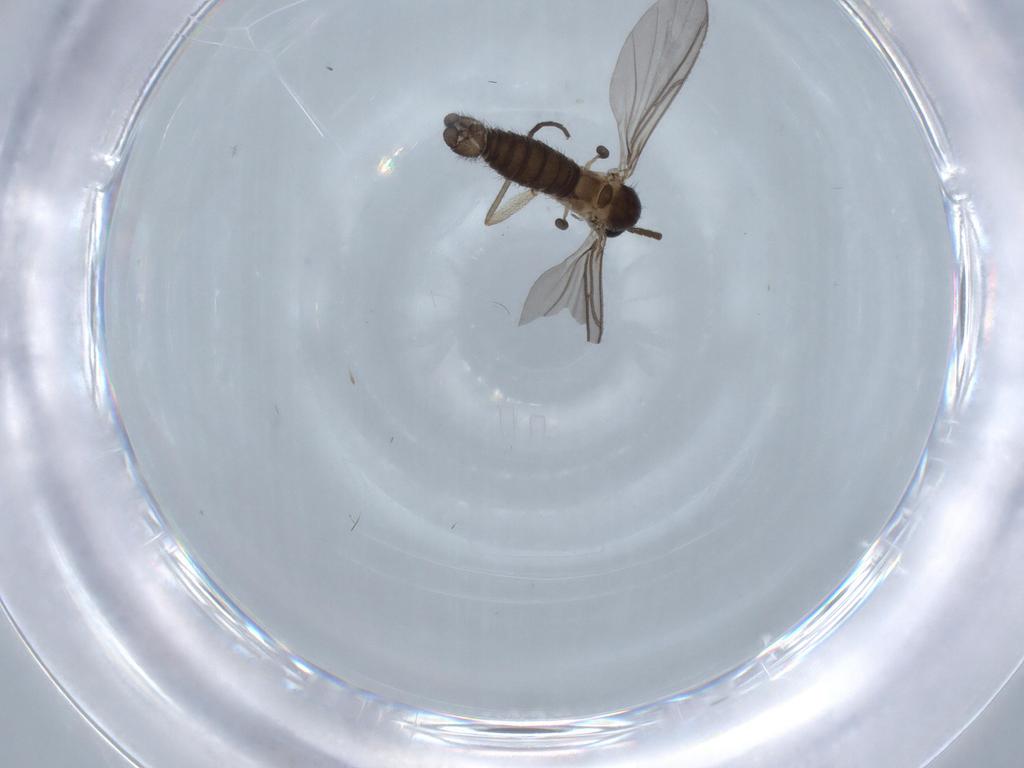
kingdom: Animalia
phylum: Arthropoda
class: Insecta
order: Diptera
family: Sciaridae
